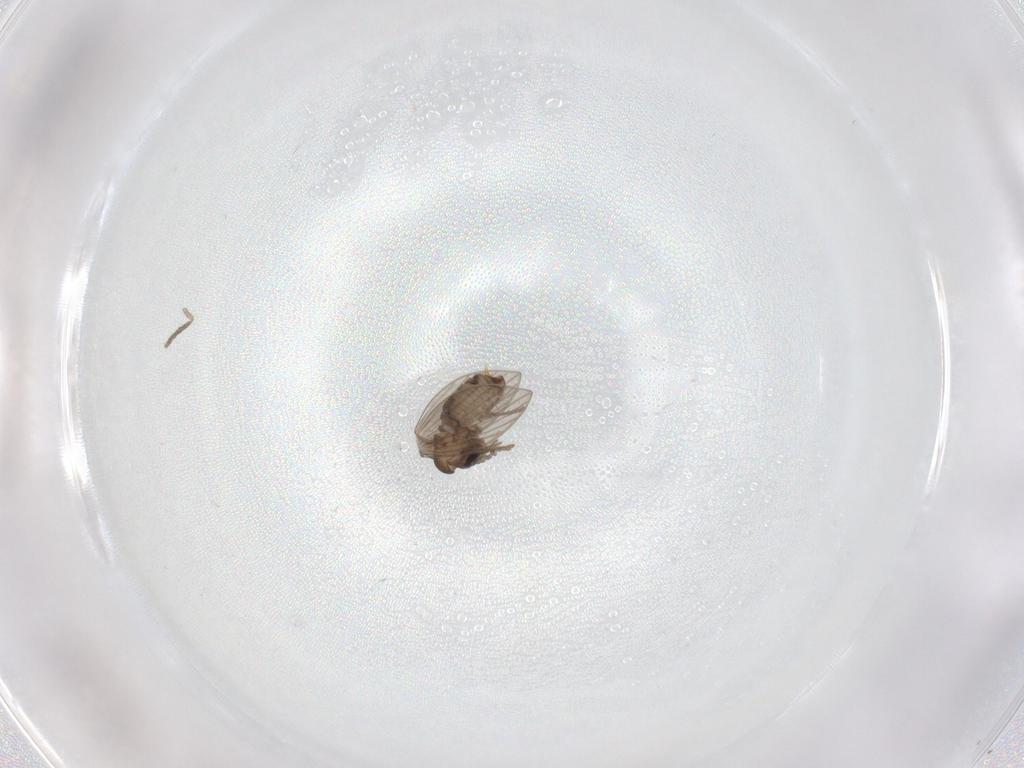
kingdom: Animalia
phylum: Arthropoda
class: Insecta
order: Diptera
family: Psychodidae
